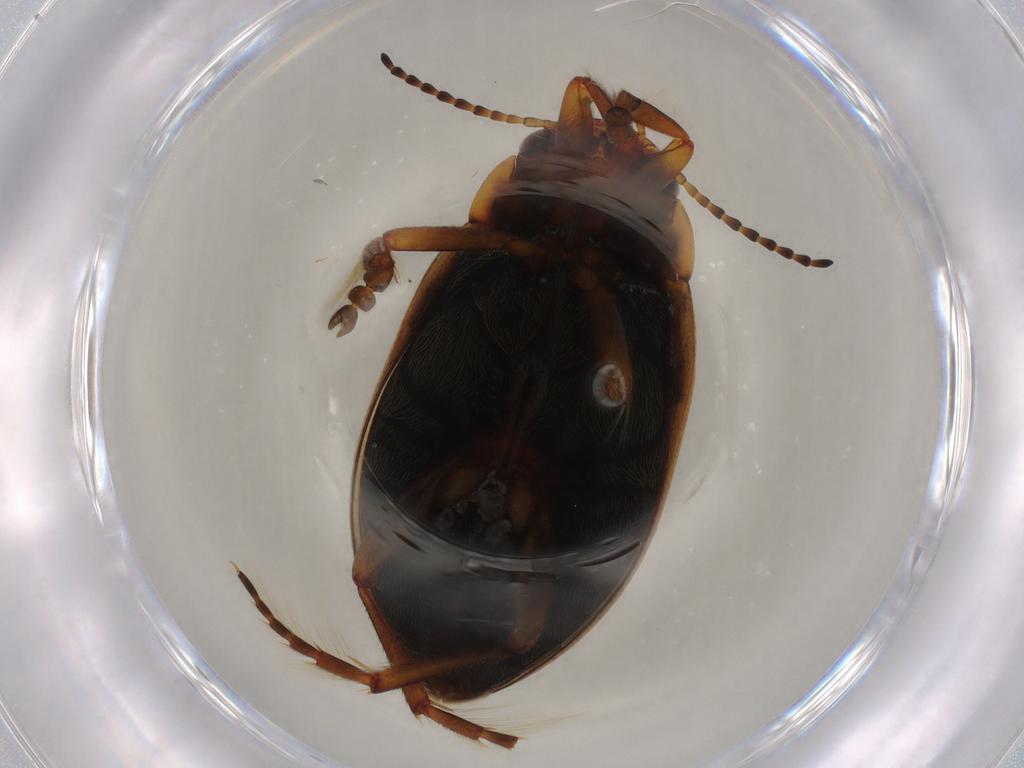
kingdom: Animalia
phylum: Arthropoda
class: Insecta
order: Coleoptera
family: Dytiscidae
